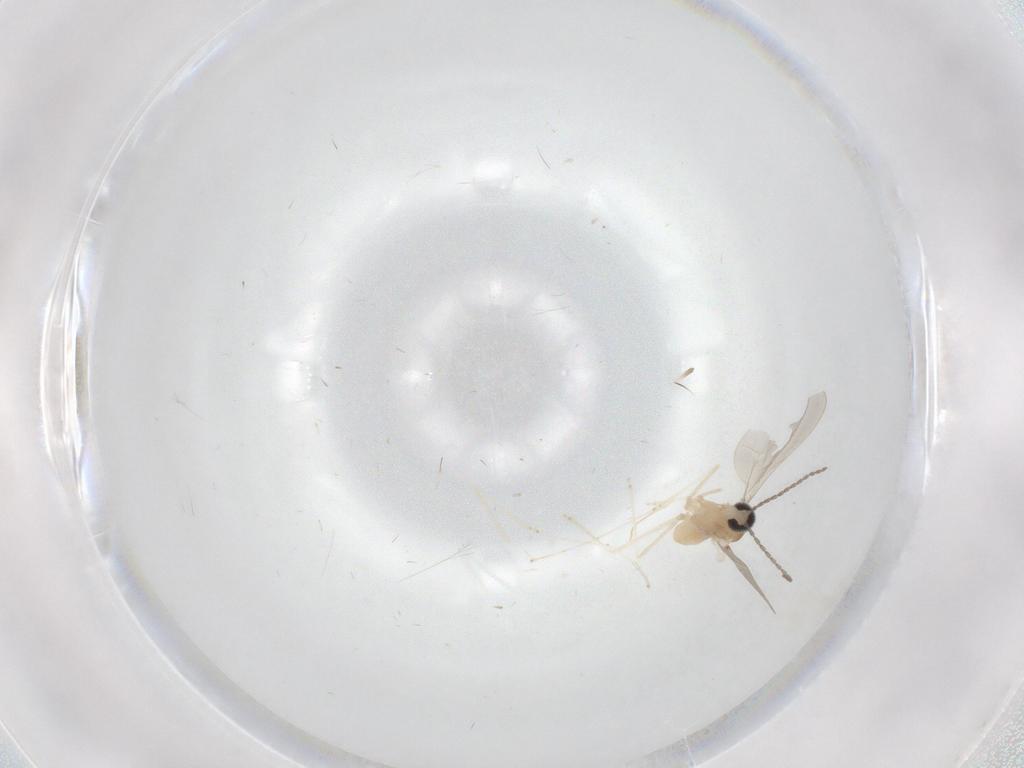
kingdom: Animalia
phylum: Arthropoda
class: Insecta
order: Diptera
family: Cecidomyiidae
